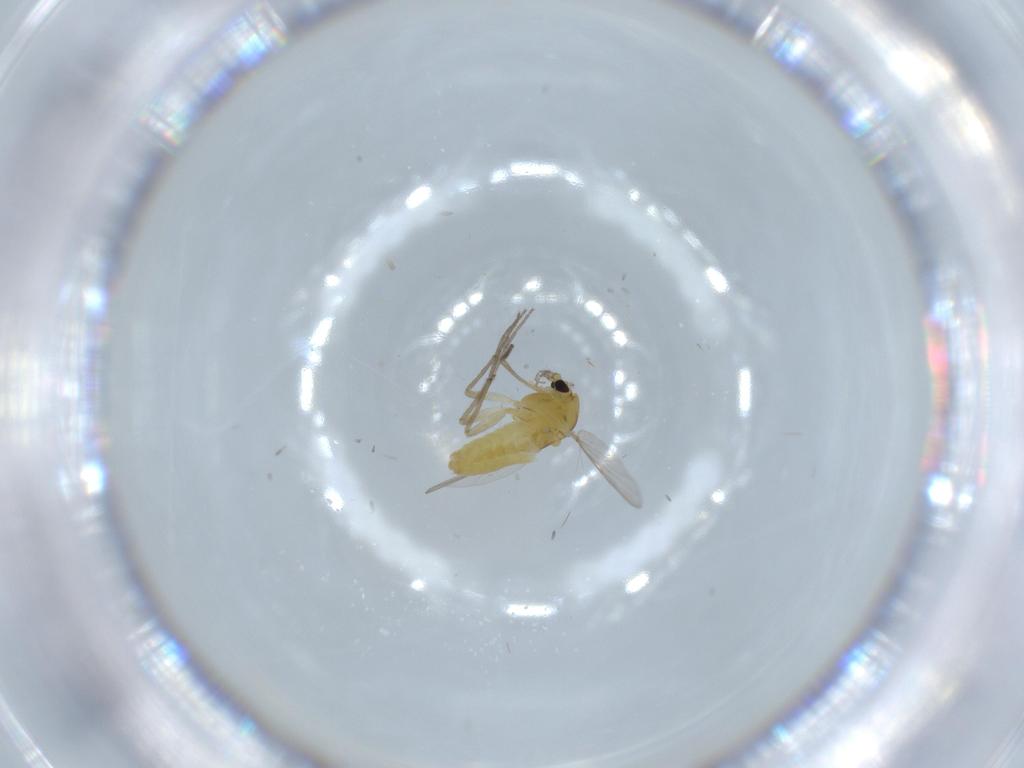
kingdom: Animalia
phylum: Arthropoda
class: Insecta
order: Diptera
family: Chironomidae
